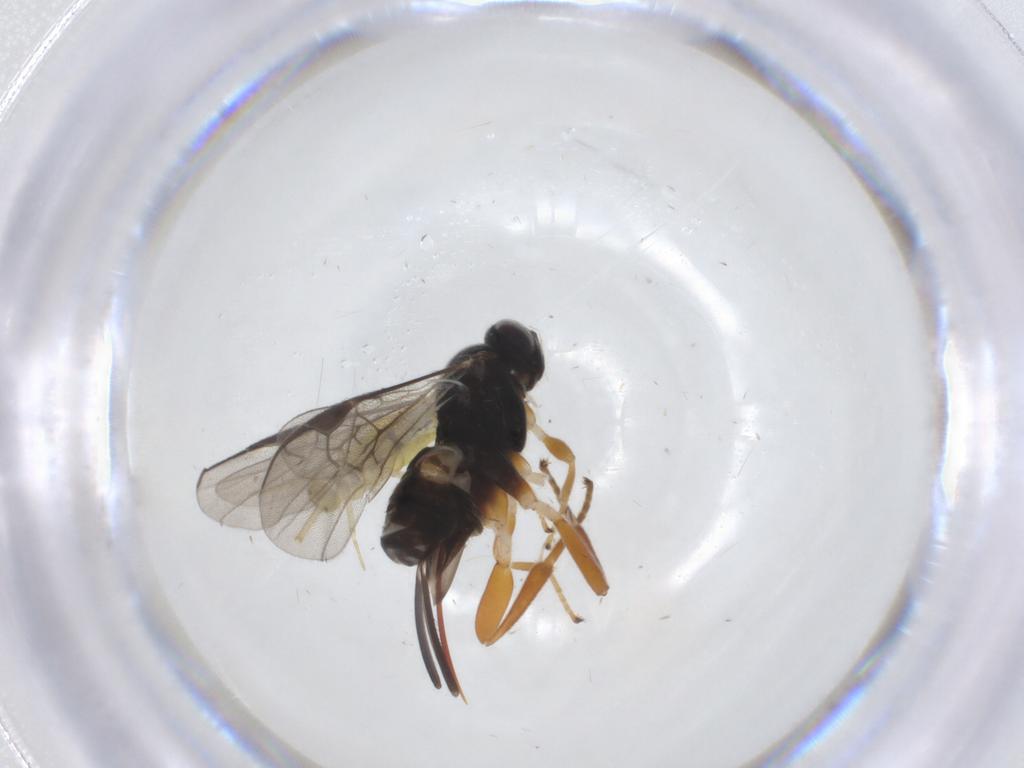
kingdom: Animalia
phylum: Arthropoda
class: Insecta
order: Hymenoptera
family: Braconidae
